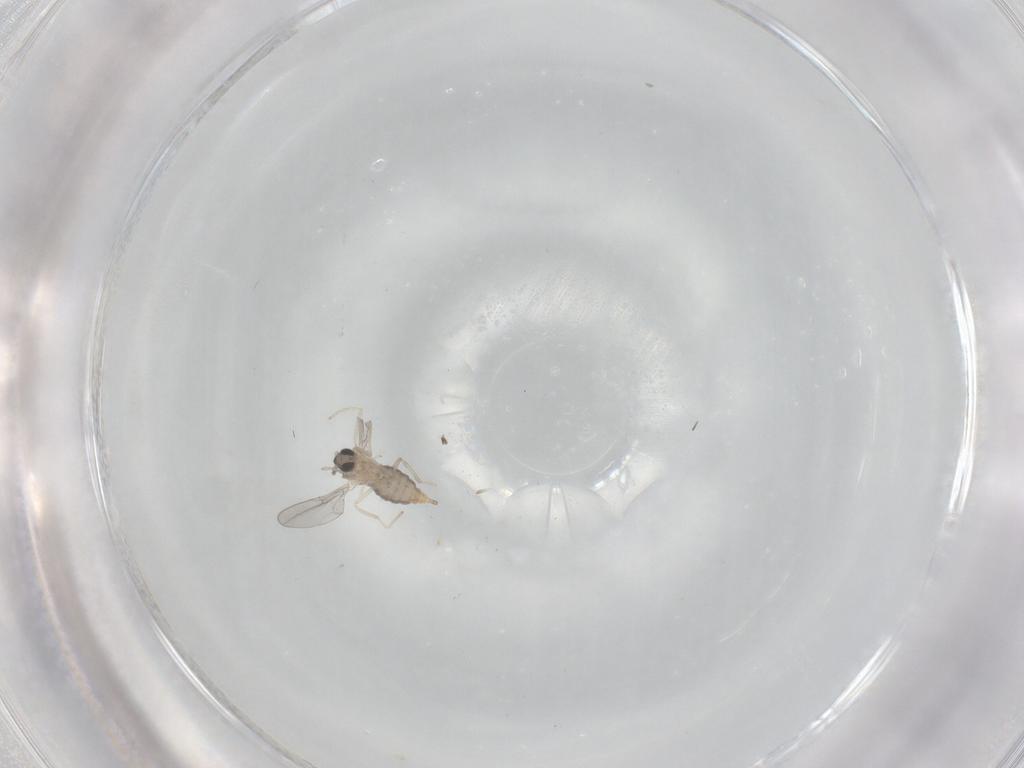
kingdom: Animalia
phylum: Arthropoda
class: Insecta
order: Diptera
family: Cecidomyiidae
